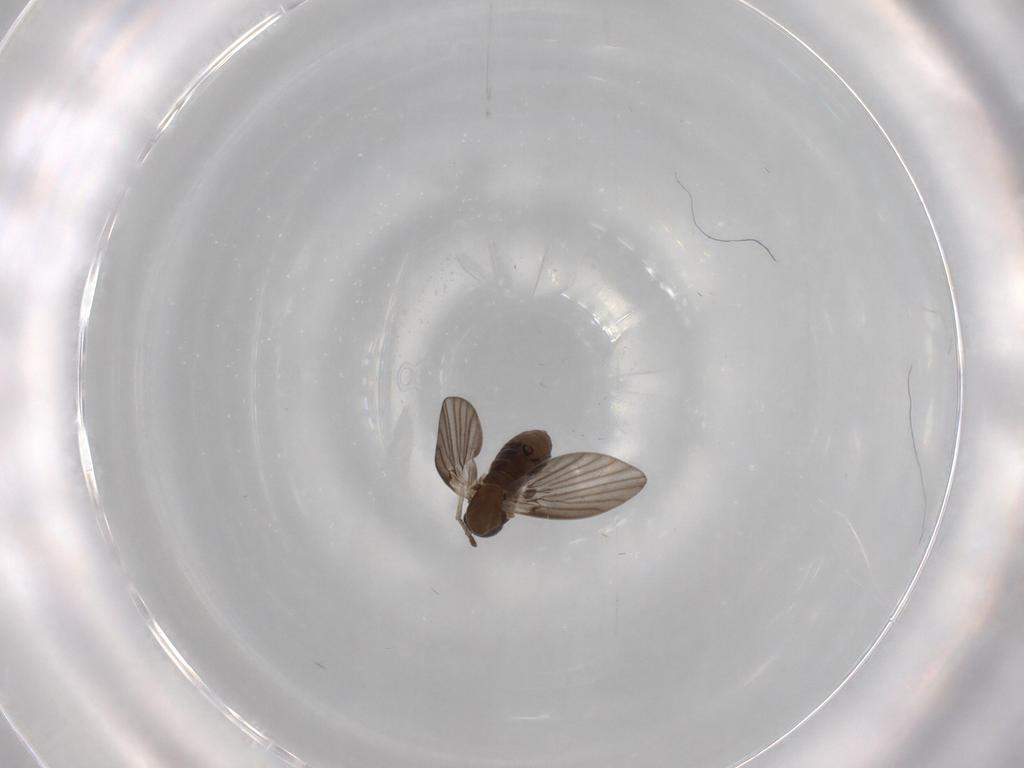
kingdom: Animalia
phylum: Arthropoda
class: Insecta
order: Diptera
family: Psychodidae
